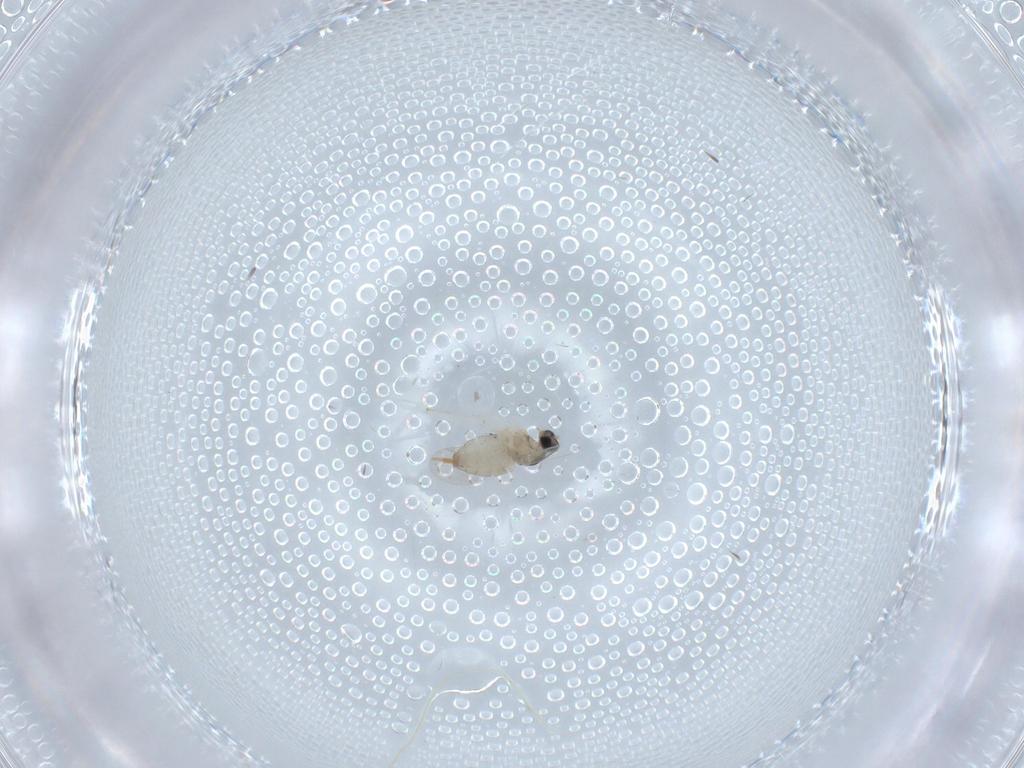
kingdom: Animalia
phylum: Arthropoda
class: Insecta
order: Diptera
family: Cecidomyiidae
